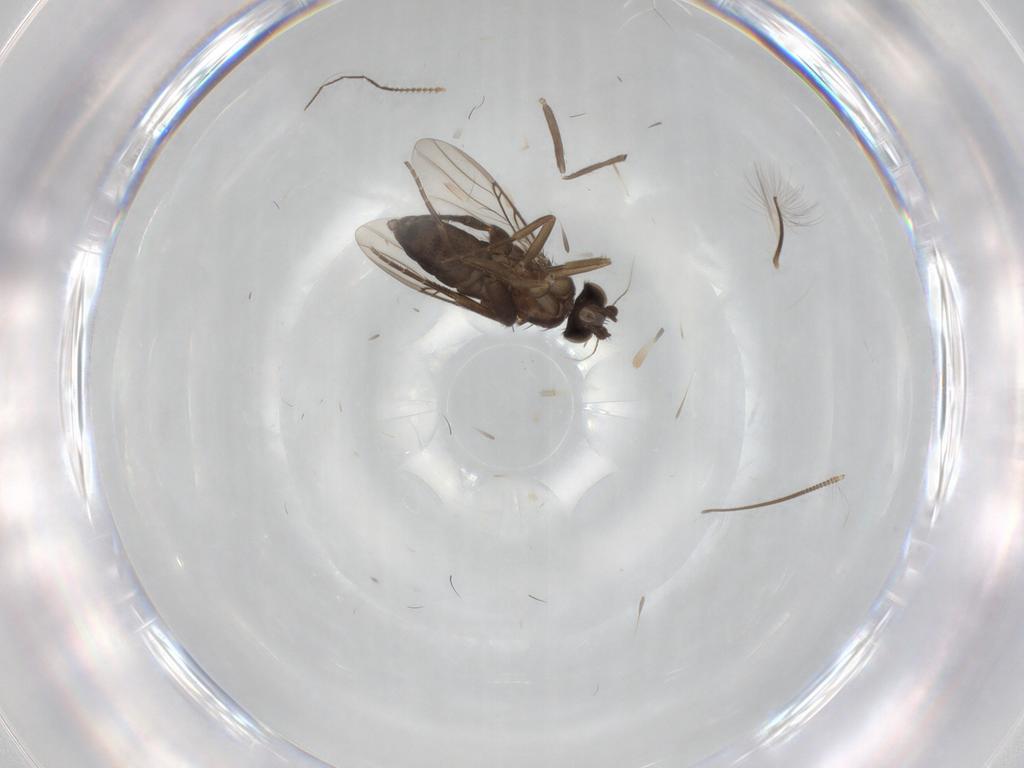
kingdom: Animalia
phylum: Arthropoda
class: Insecta
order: Diptera
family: Phoridae
